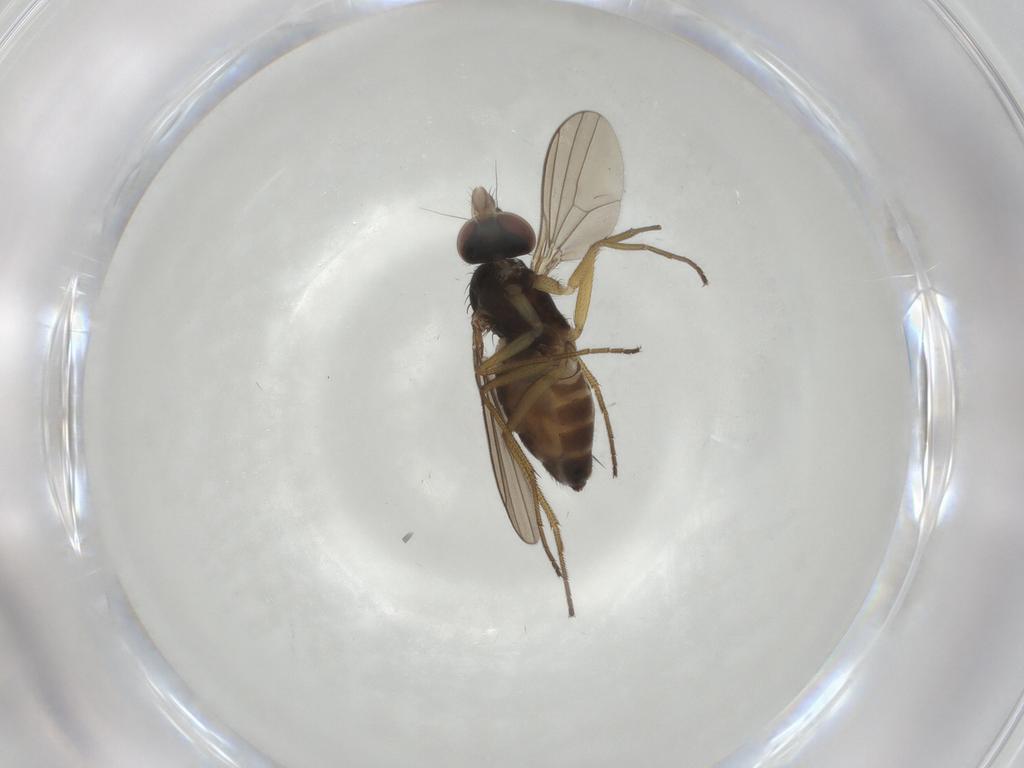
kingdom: Animalia
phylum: Arthropoda
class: Insecta
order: Diptera
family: Dolichopodidae
